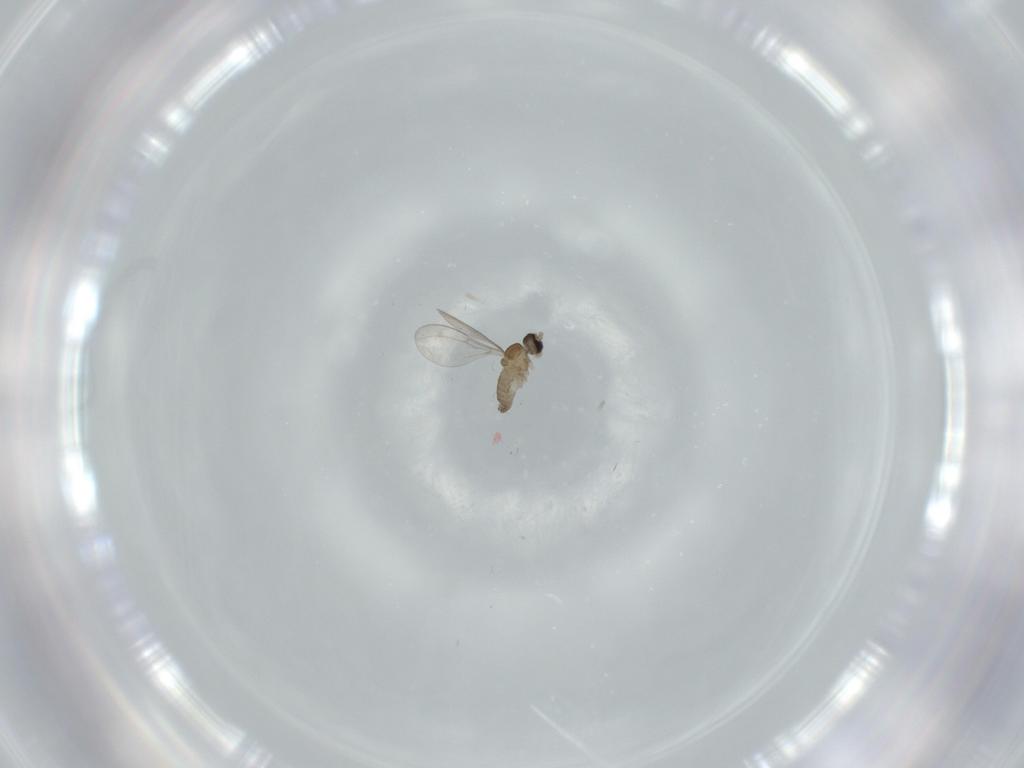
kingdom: Animalia
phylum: Arthropoda
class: Insecta
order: Diptera
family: Cecidomyiidae
